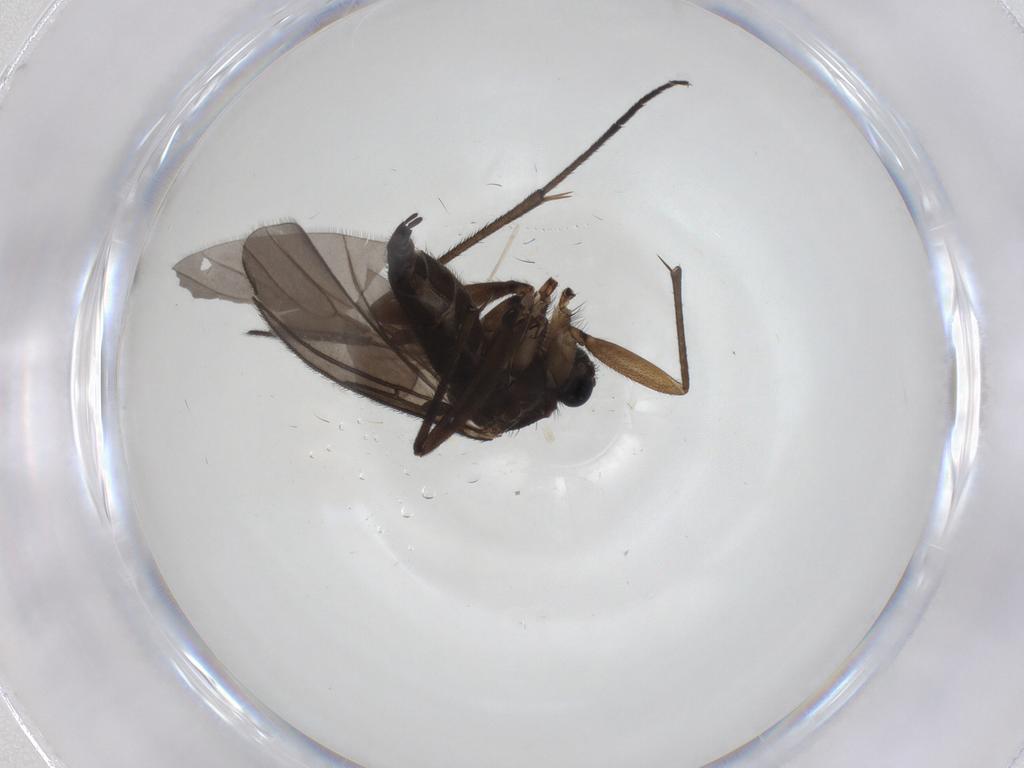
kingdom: Animalia
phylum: Arthropoda
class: Insecta
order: Diptera
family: Sciaridae
